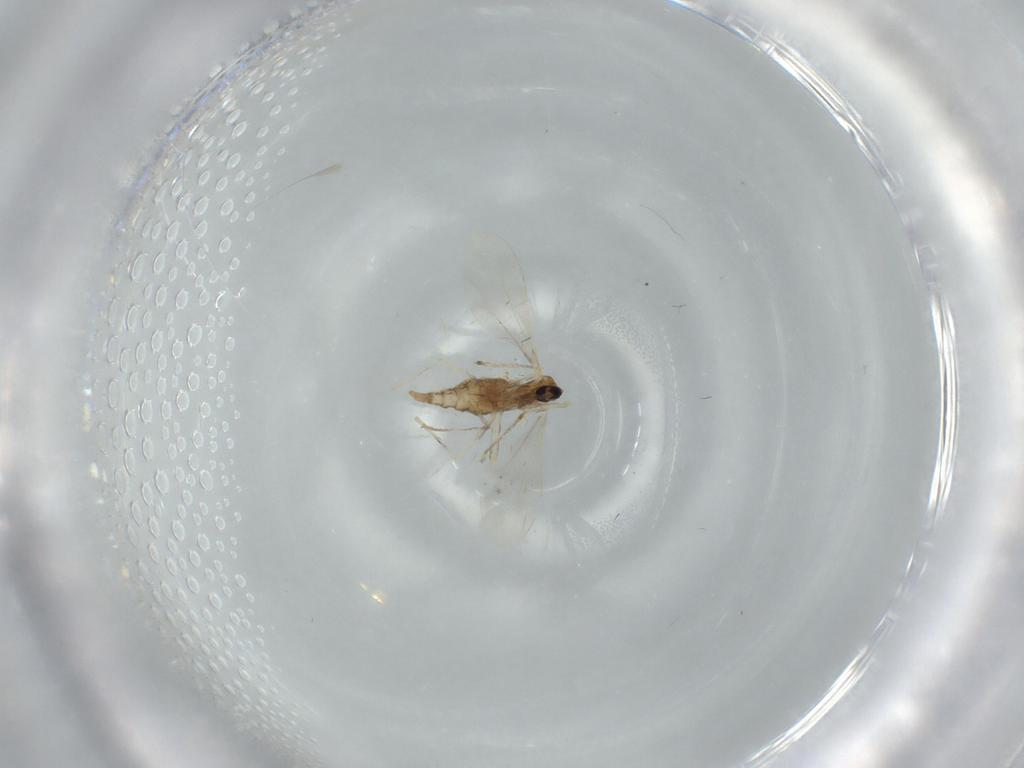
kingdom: Animalia
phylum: Arthropoda
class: Insecta
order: Diptera
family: Cecidomyiidae
